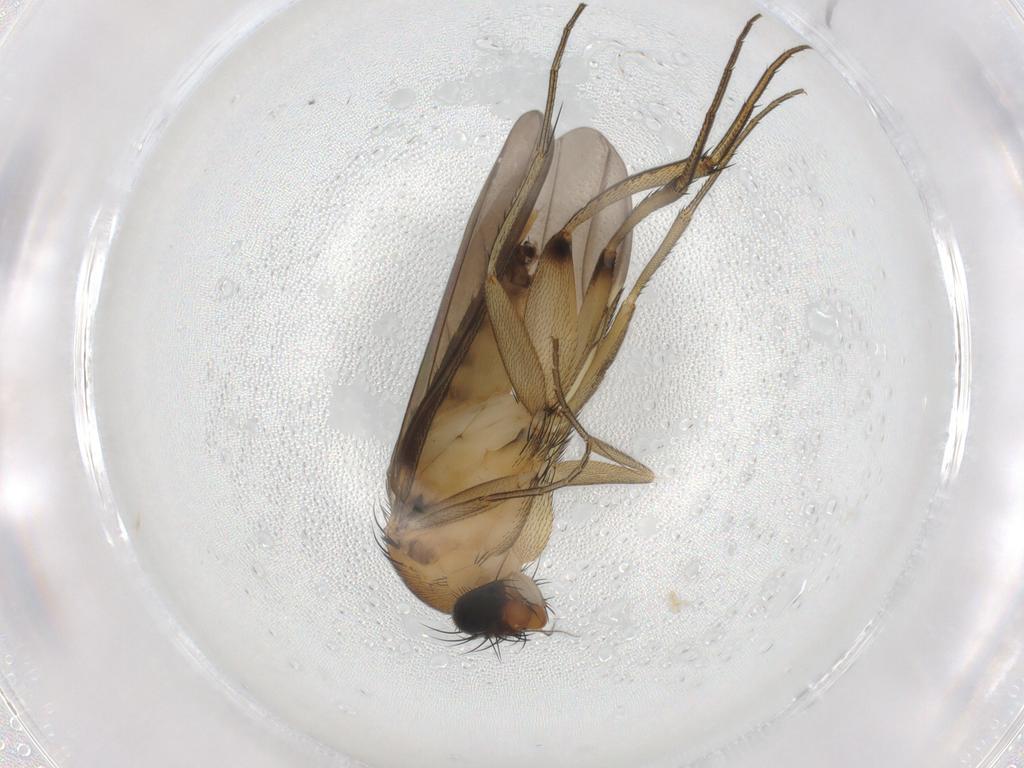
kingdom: Animalia
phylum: Arthropoda
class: Insecta
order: Diptera
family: Phoridae
